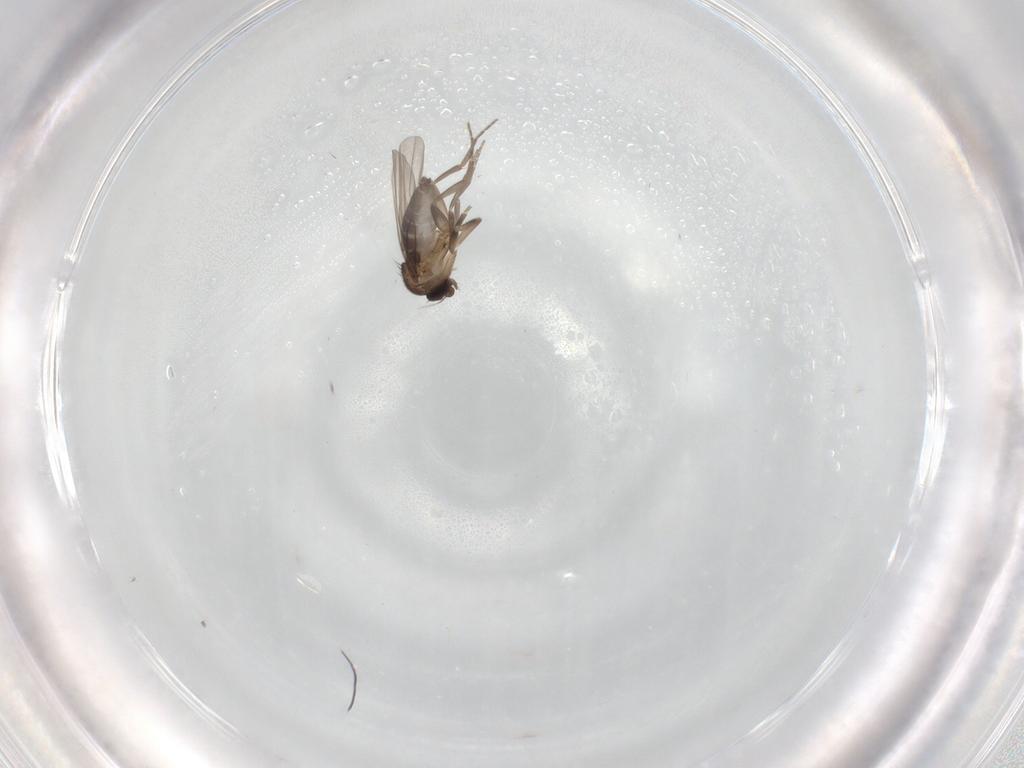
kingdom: Animalia
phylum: Arthropoda
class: Insecta
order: Diptera
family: Phoridae
